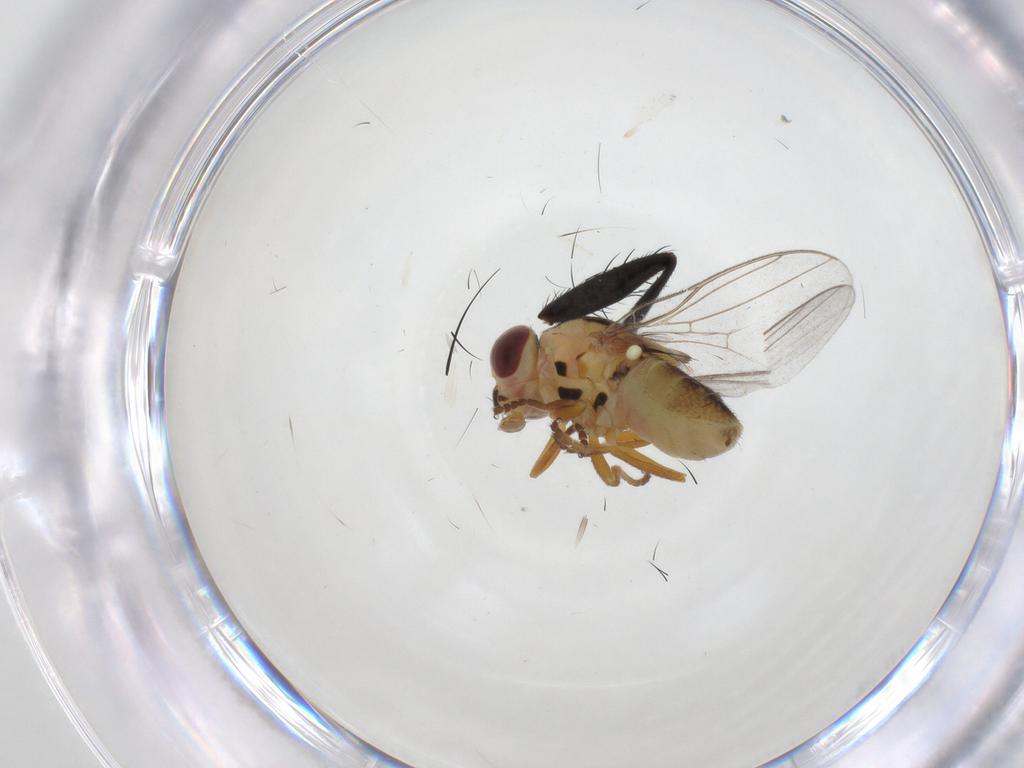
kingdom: Animalia
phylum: Arthropoda
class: Insecta
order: Diptera
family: Chloropidae
